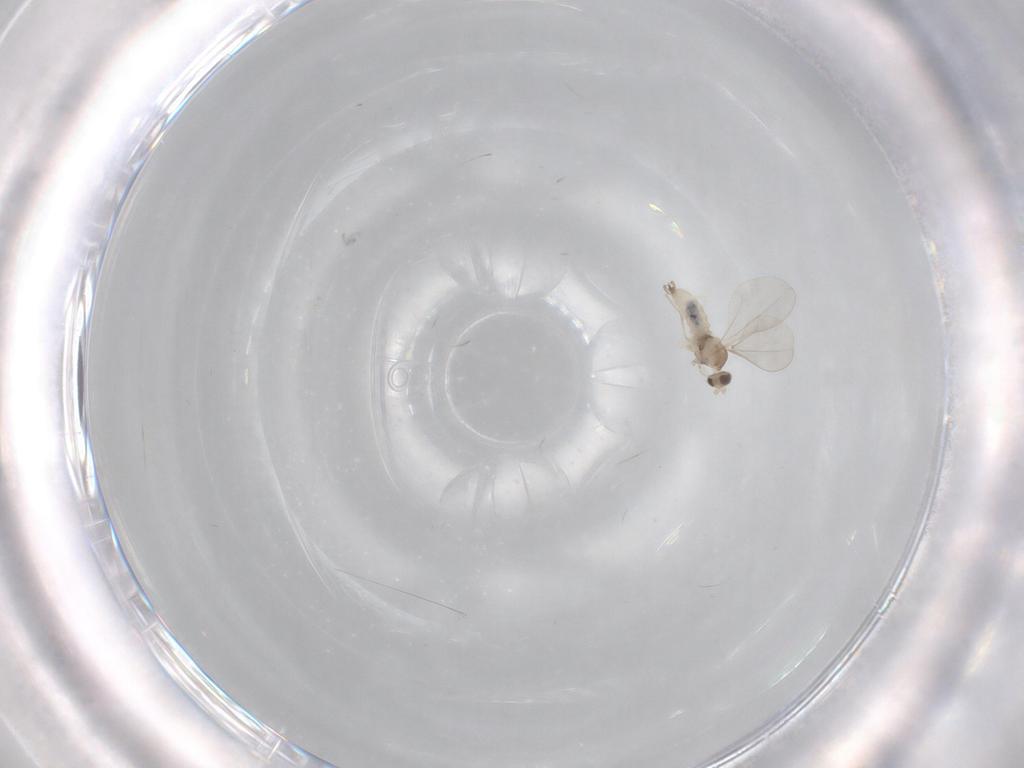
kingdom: Animalia
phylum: Arthropoda
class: Insecta
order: Diptera
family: Cecidomyiidae
